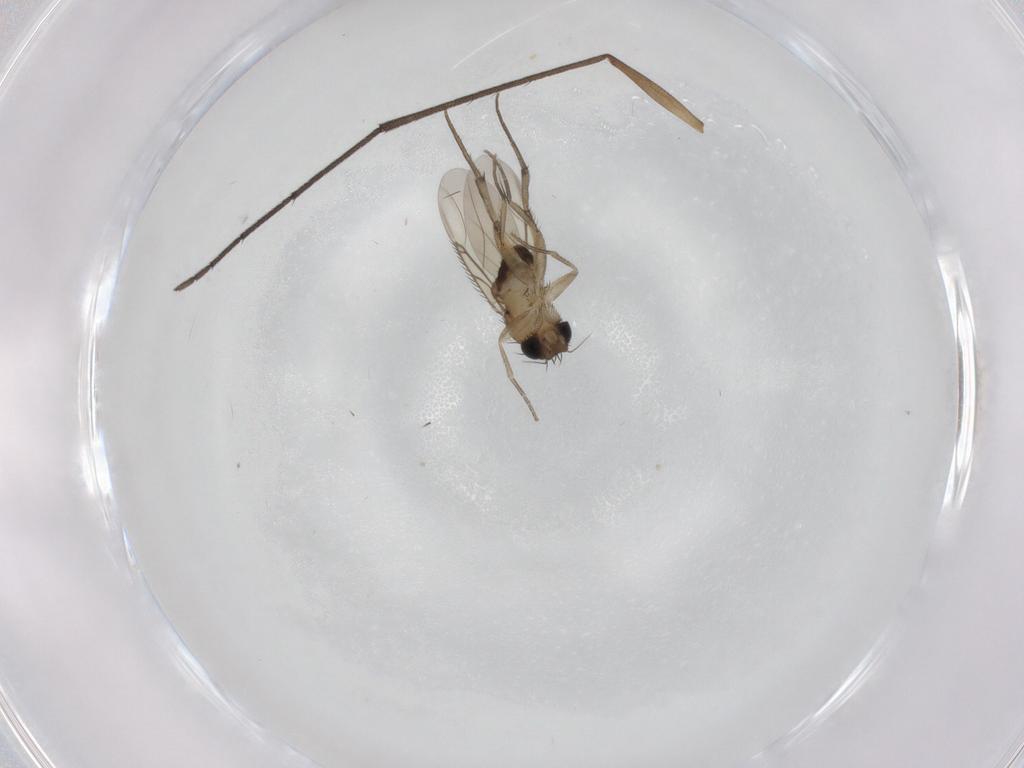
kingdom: Animalia
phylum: Arthropoda
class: Insecta
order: Diptera
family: Phoridae
